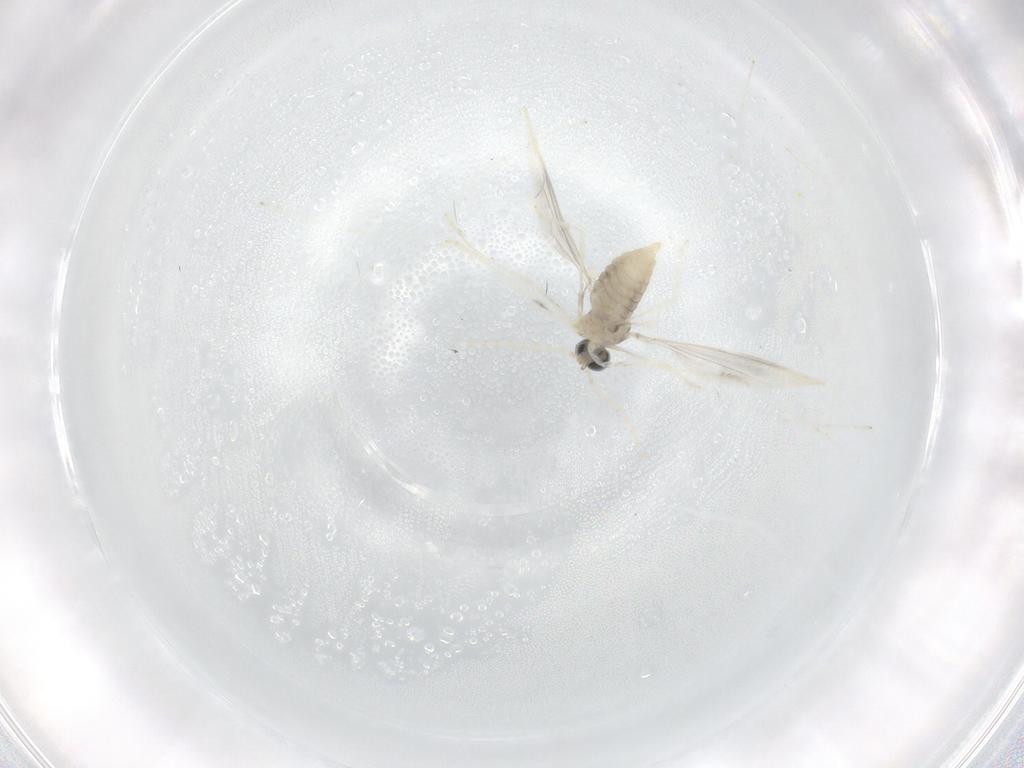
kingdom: Animalia
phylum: Arthropoda
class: Insecta
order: Diptera
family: Cecidomyiidae
